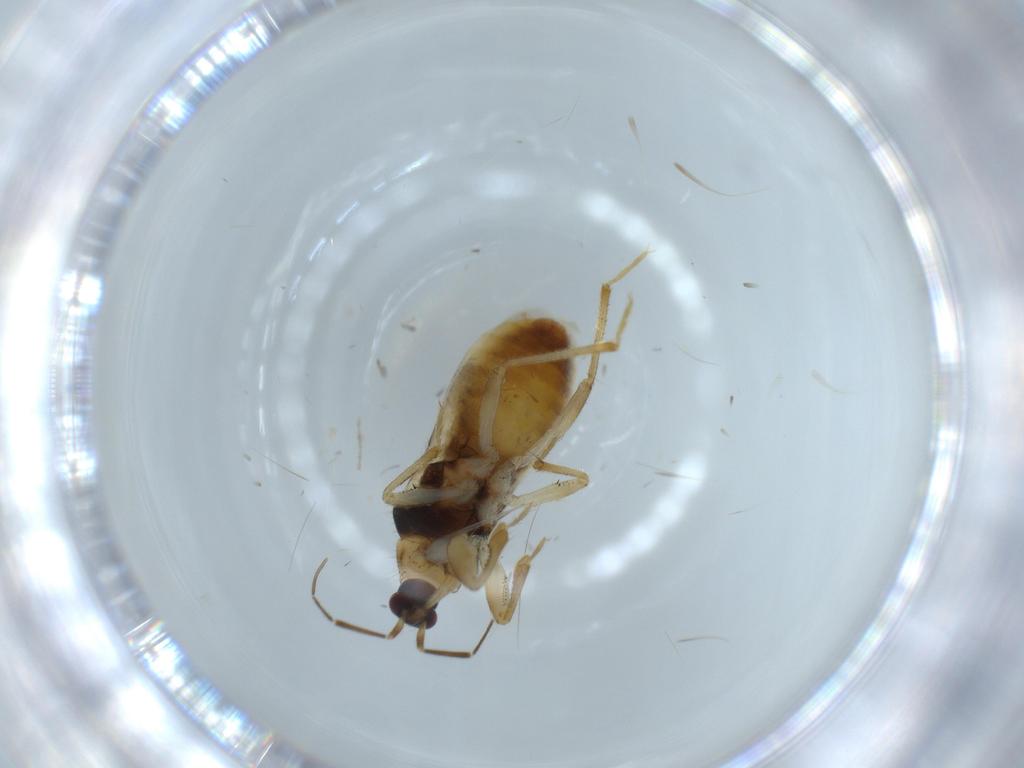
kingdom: Animalia
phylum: Arthropoda
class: Insecta
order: Hemiptera
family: Nabidae
